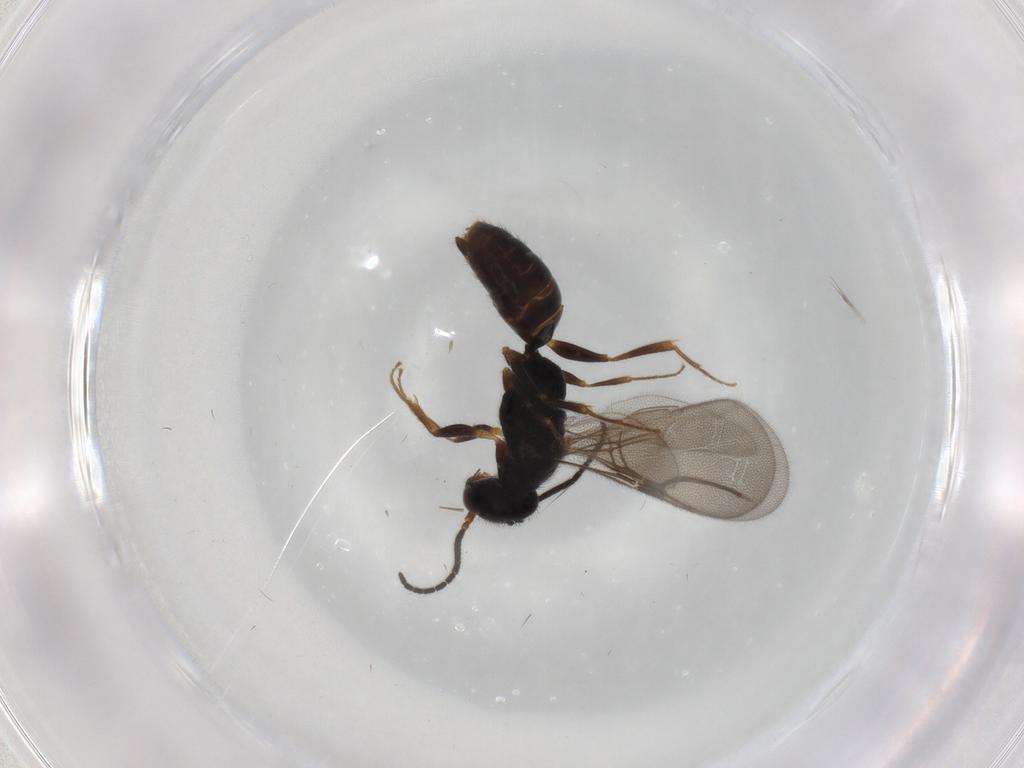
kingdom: Animalia
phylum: Arthropoda
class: Insecta
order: Hymenoptera
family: Bethylidae
